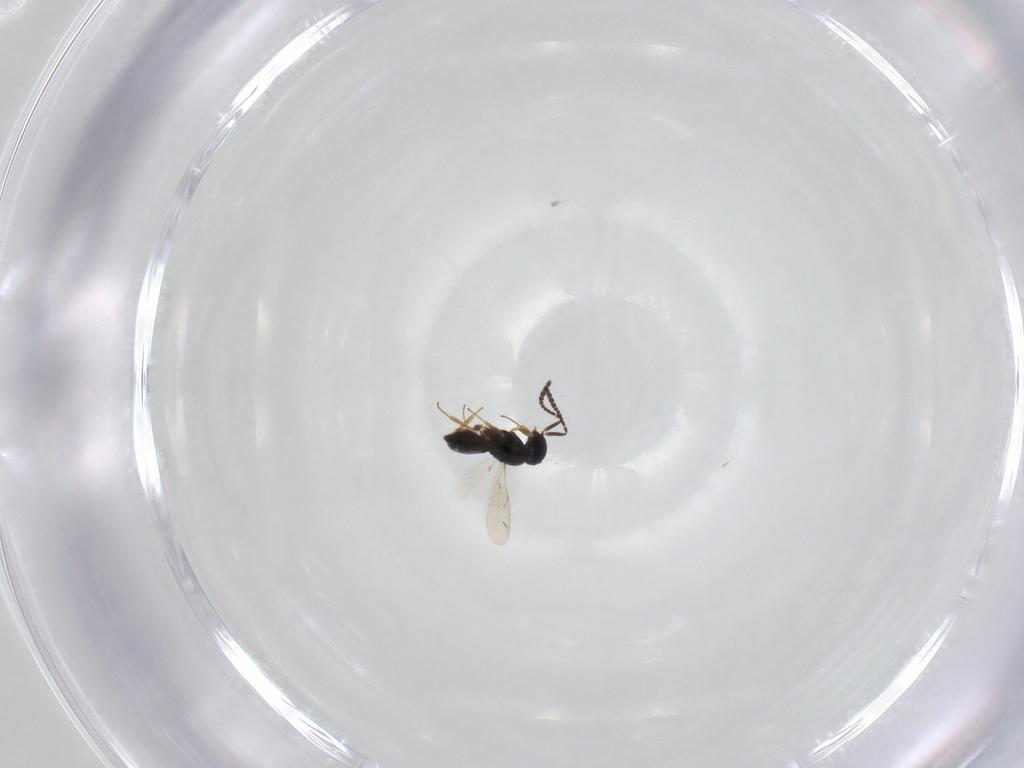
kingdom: Animalia
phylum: Arthropoda
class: Insecta
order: Hymenoptera
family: Scelionidae
